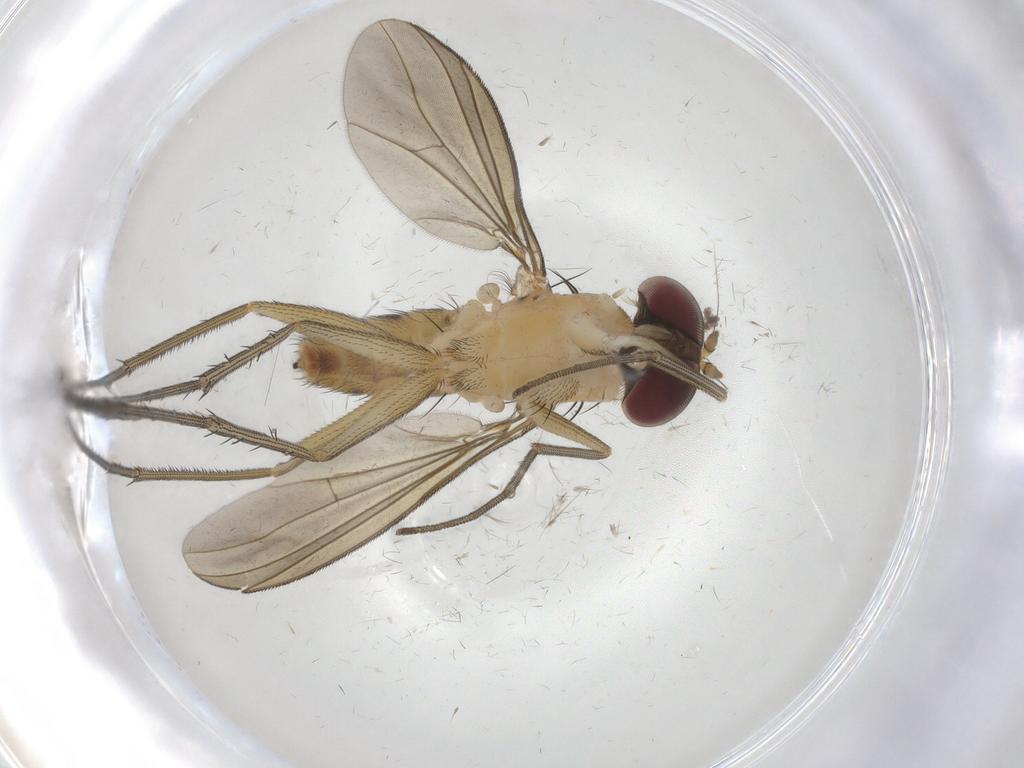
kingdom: Animalia
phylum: Arthropoda
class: Insecta
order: Diptera
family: Dolichopodidae
